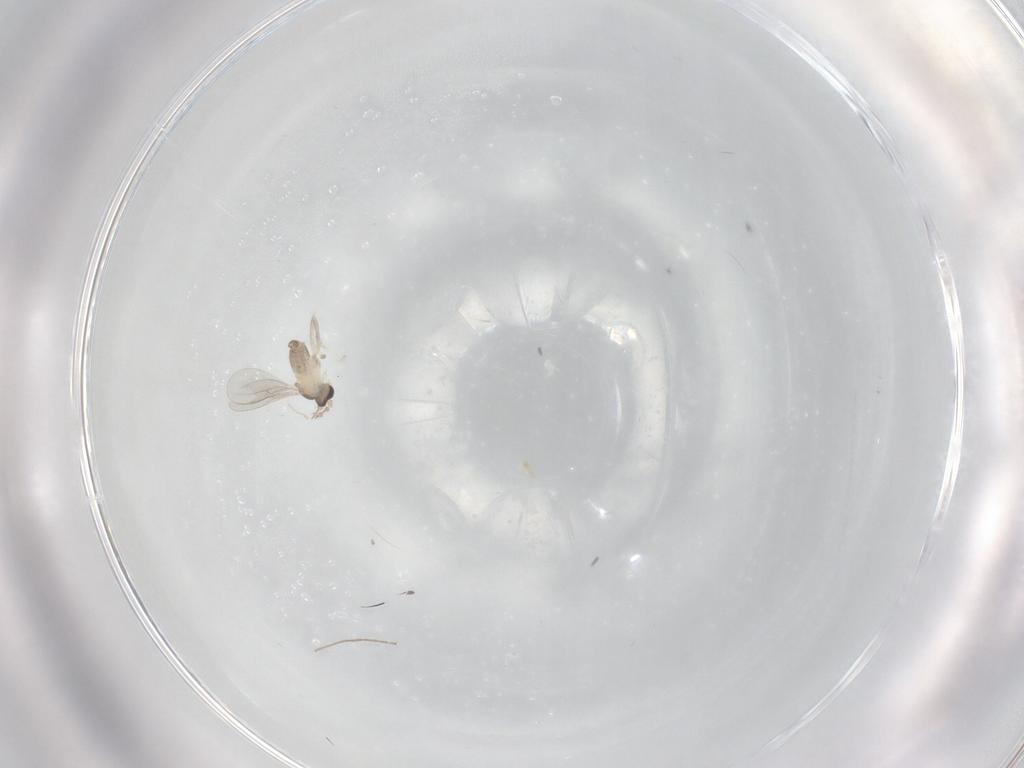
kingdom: Animalia
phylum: Arthropoda
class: Insecta
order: Diptera
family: Cecidomyiidae
